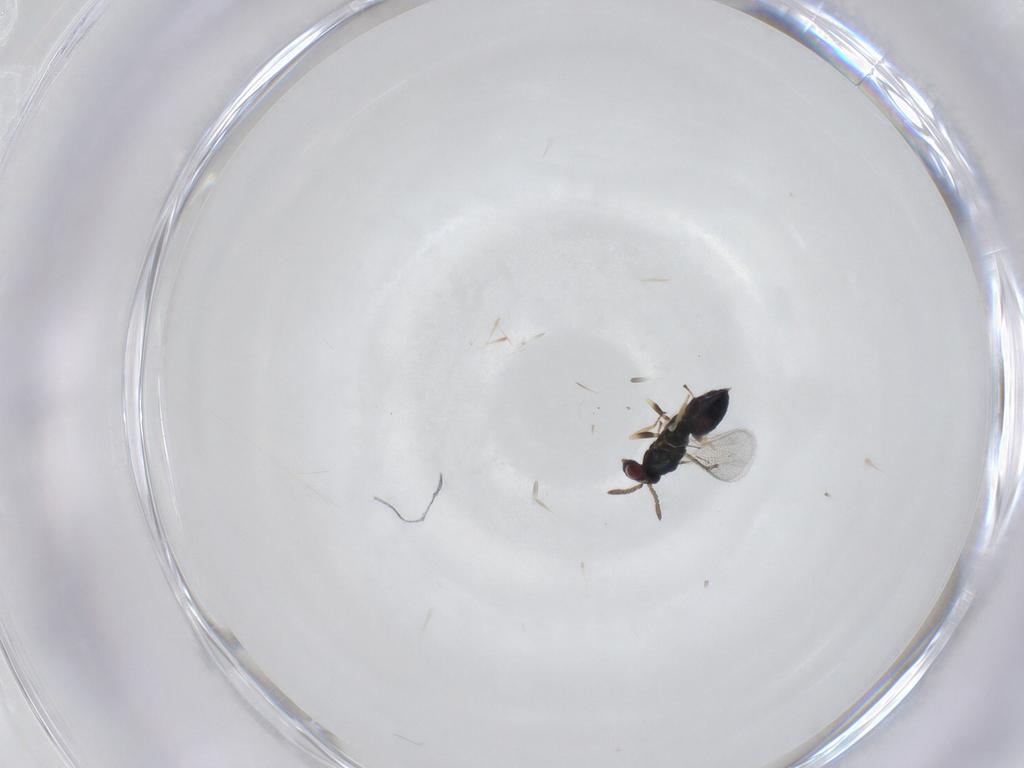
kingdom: Animalia
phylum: Arthropoda
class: Insecta
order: Hymenoptera
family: Eulophidae
